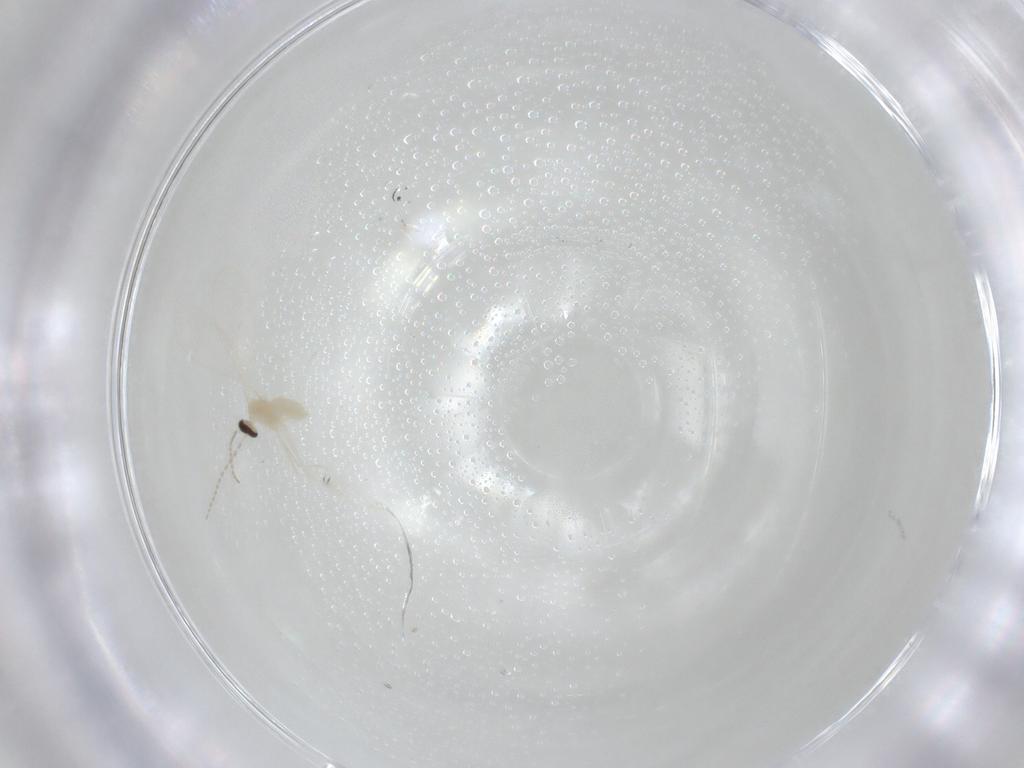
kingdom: Animalia
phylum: Arthropoda
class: Insecta
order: Diptera
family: Cecidomyiidae
